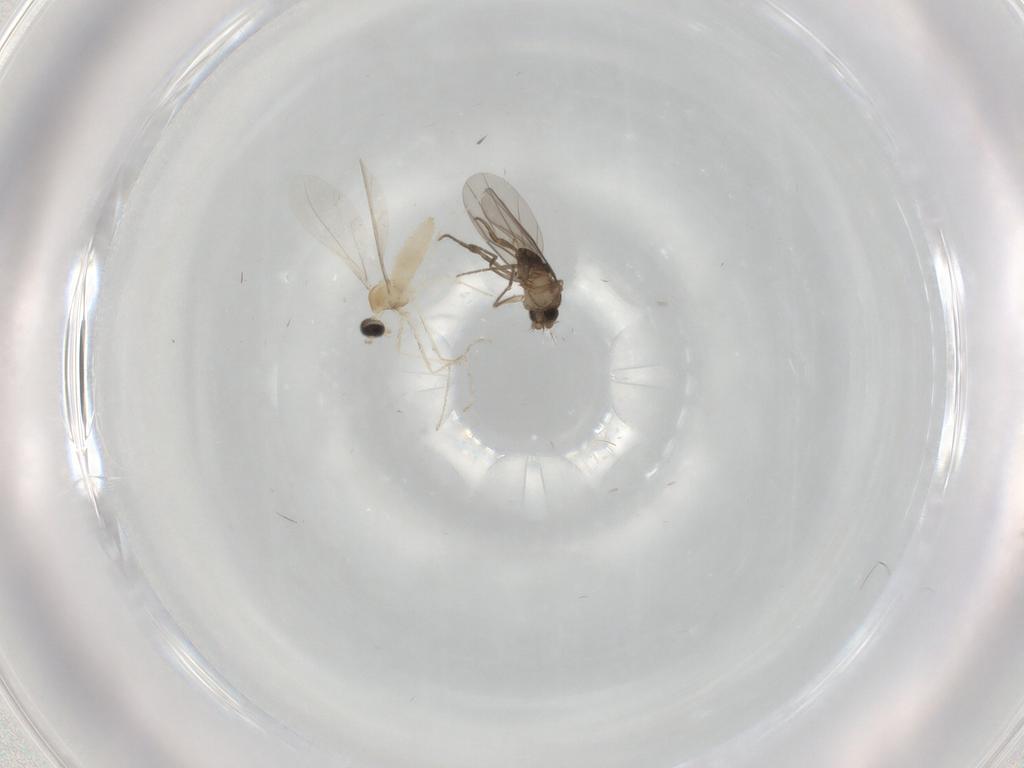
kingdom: Animalia
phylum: Arthropoda
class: Insecta
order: Diptera
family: Cecidomyiidae
